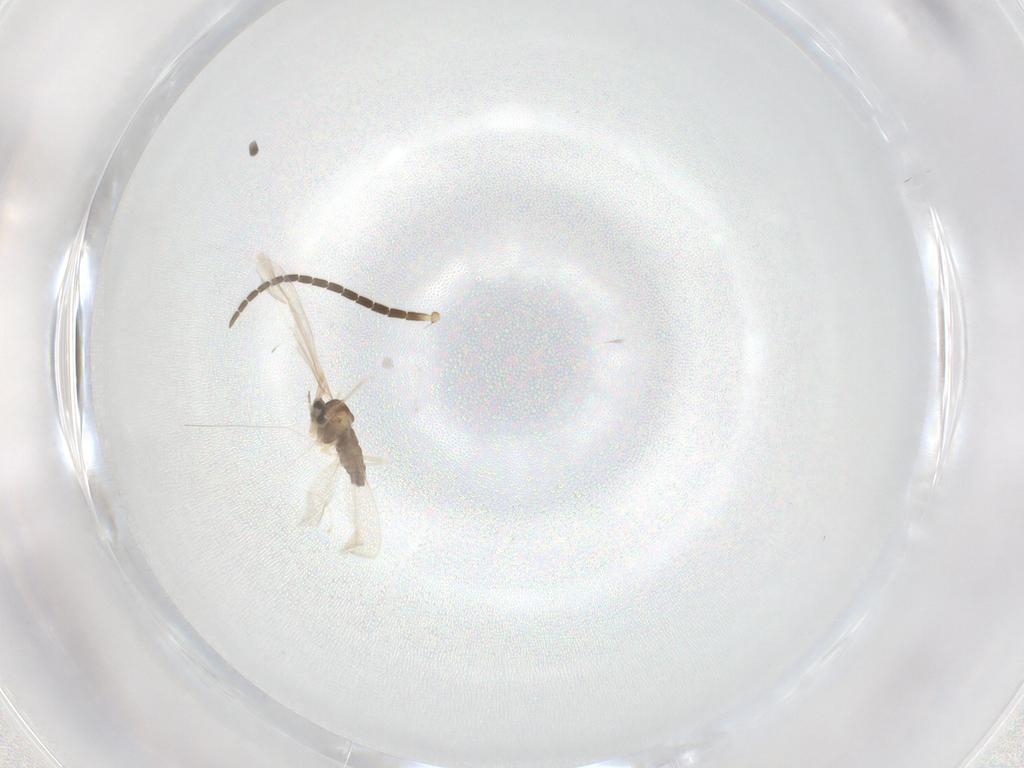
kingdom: Animalia
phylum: Arthropoda
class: Insecta
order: Diptera
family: Cecidomyiidae
